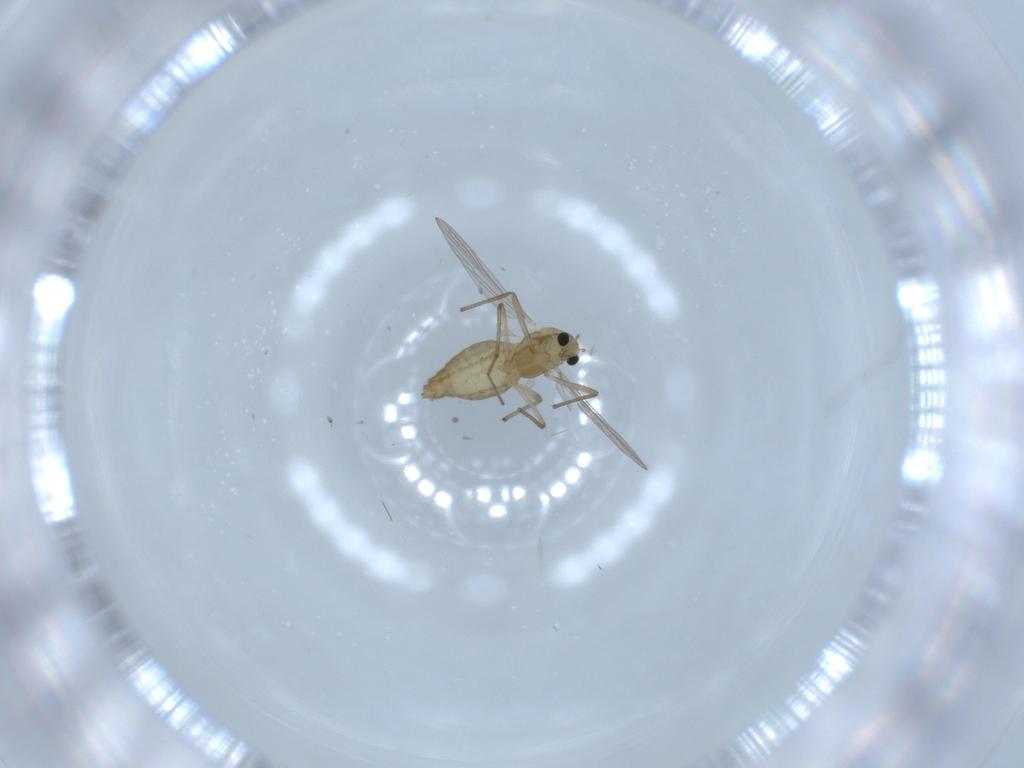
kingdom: Animalia
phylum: Arthropoda
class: Insecta
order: Diptera
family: Chironomidae
